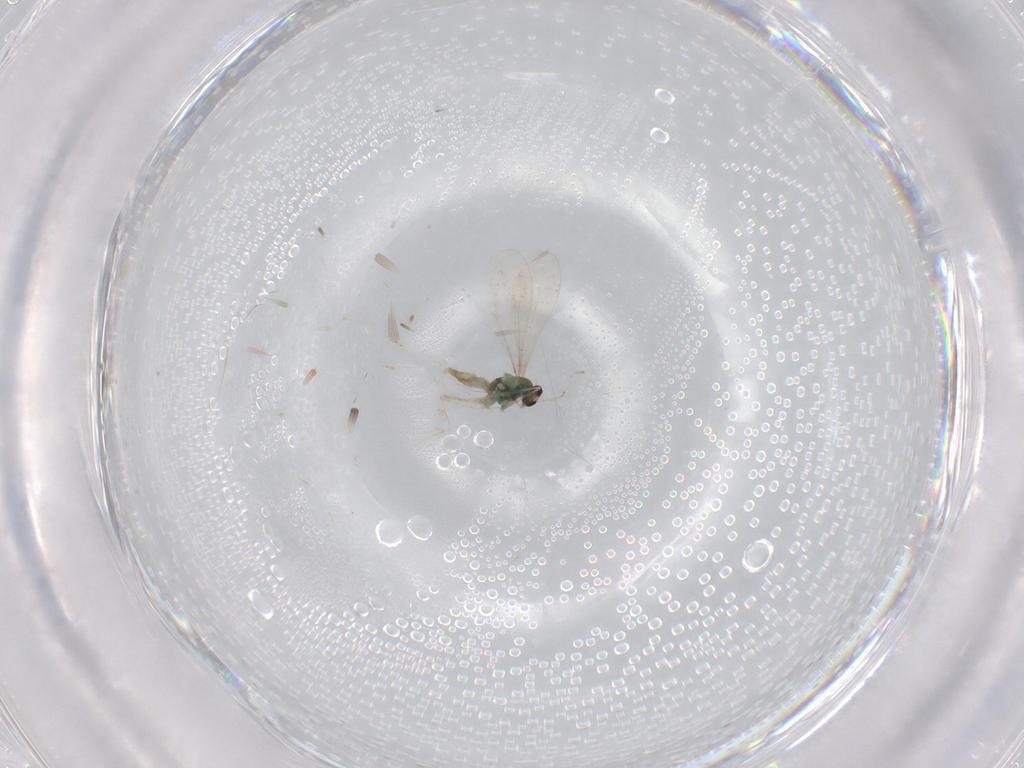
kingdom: Animalia
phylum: Arthropoda
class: Insecta
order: Diptera
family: Cecidomyiidae
